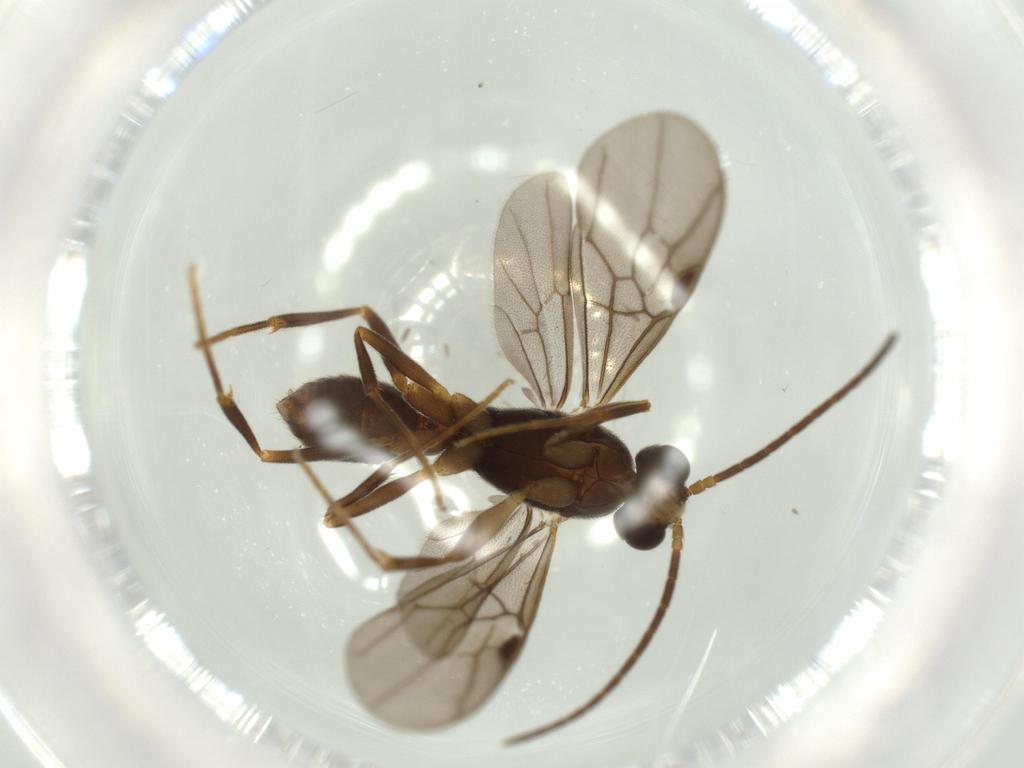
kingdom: Animalia
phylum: Arthropoda
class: Insecta
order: Hymenoptera
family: Formicidae
